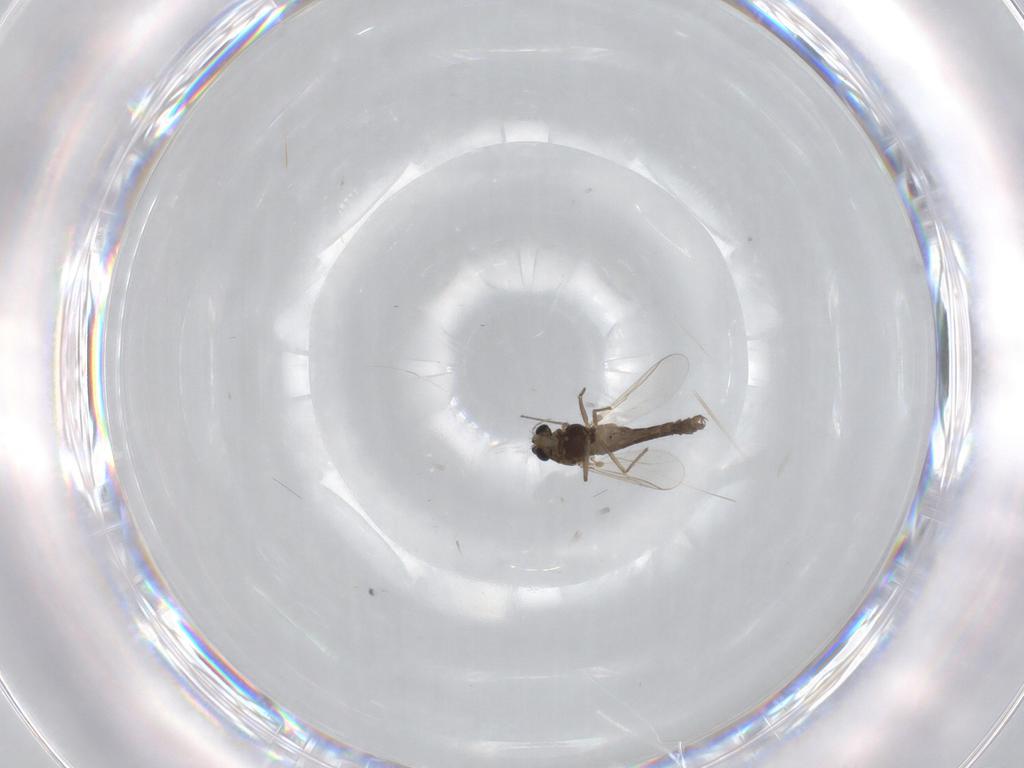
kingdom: Animalia
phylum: Arthropoda
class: Insecta
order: Diptera
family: Chironomidae
